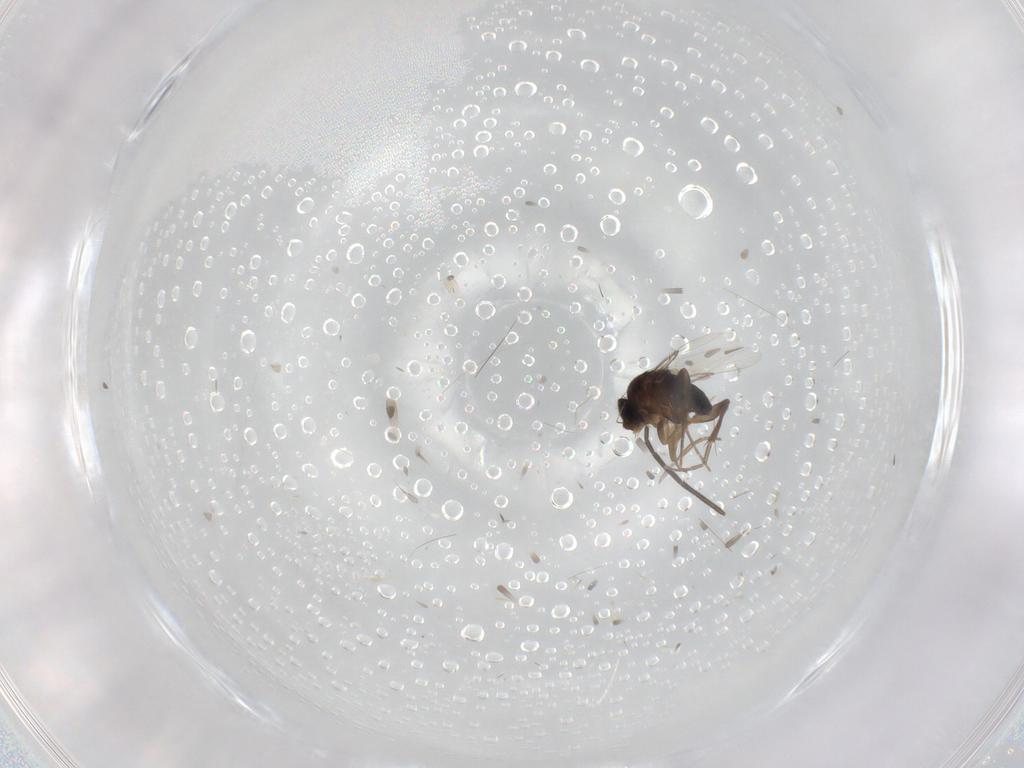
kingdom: Animalia
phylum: Arthropoda
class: Insecta
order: Diptera
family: Phoridae
